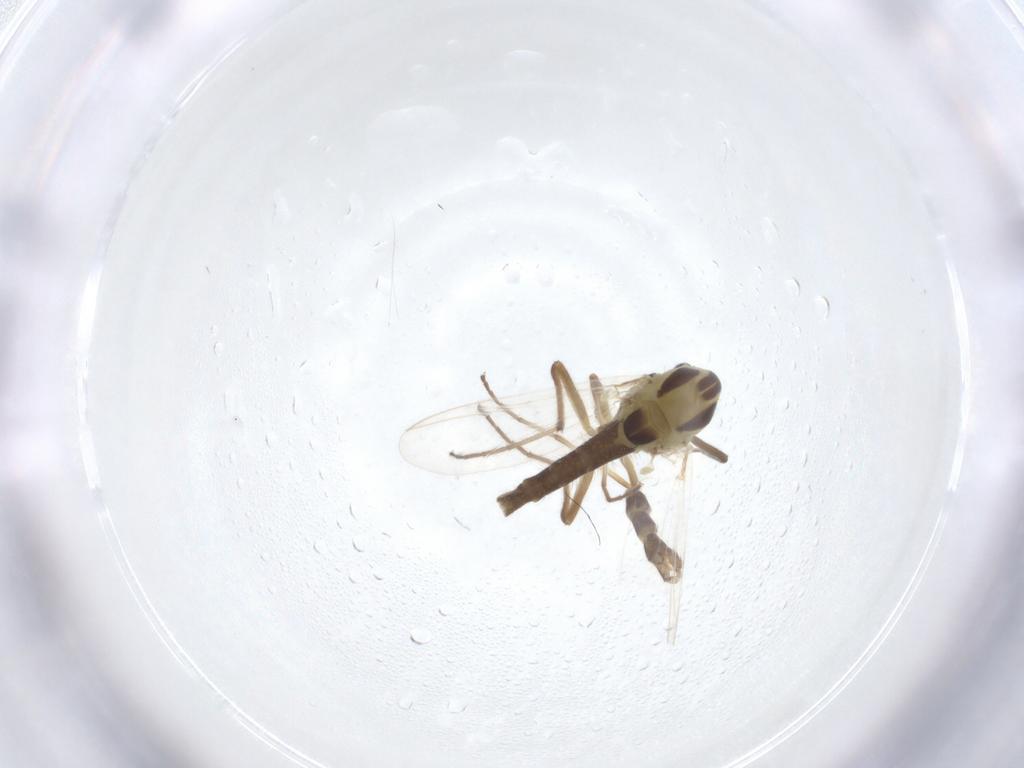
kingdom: Animalia
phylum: Arthropoda
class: Insecta
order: Diptera
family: Chironomidae
